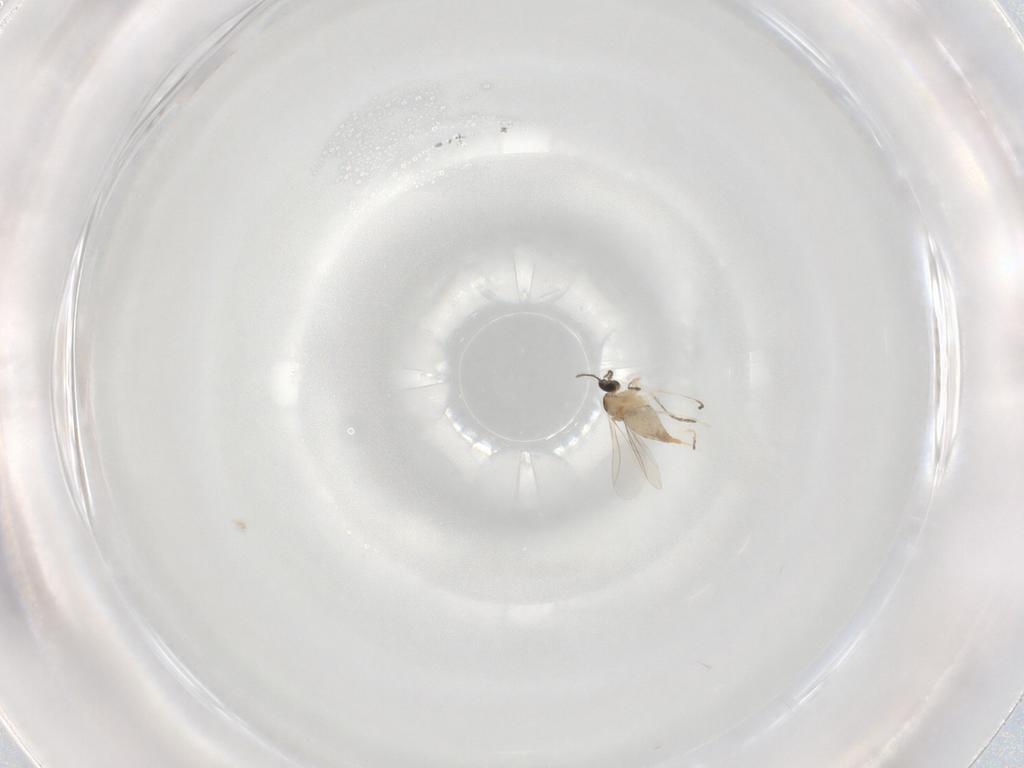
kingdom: Animalia
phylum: Arthropoda
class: Insecta
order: Diptera
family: Cecidomyiidae
